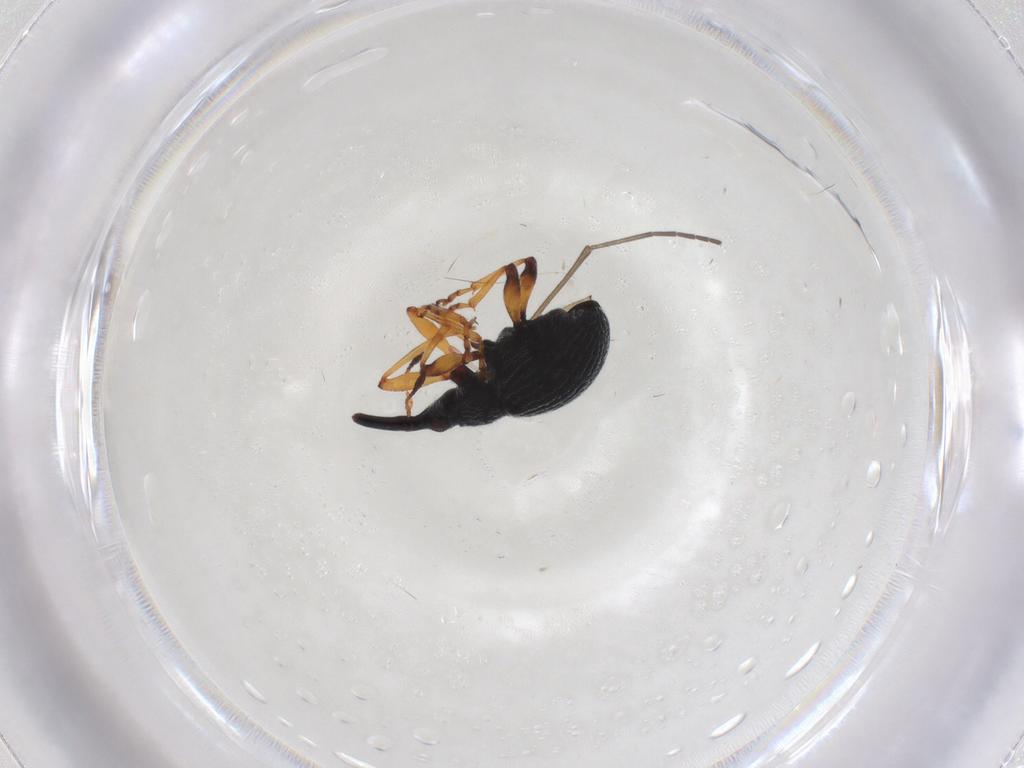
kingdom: Animalia
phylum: Arthropoda
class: Insecta
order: Coleoptera
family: Brentidae
